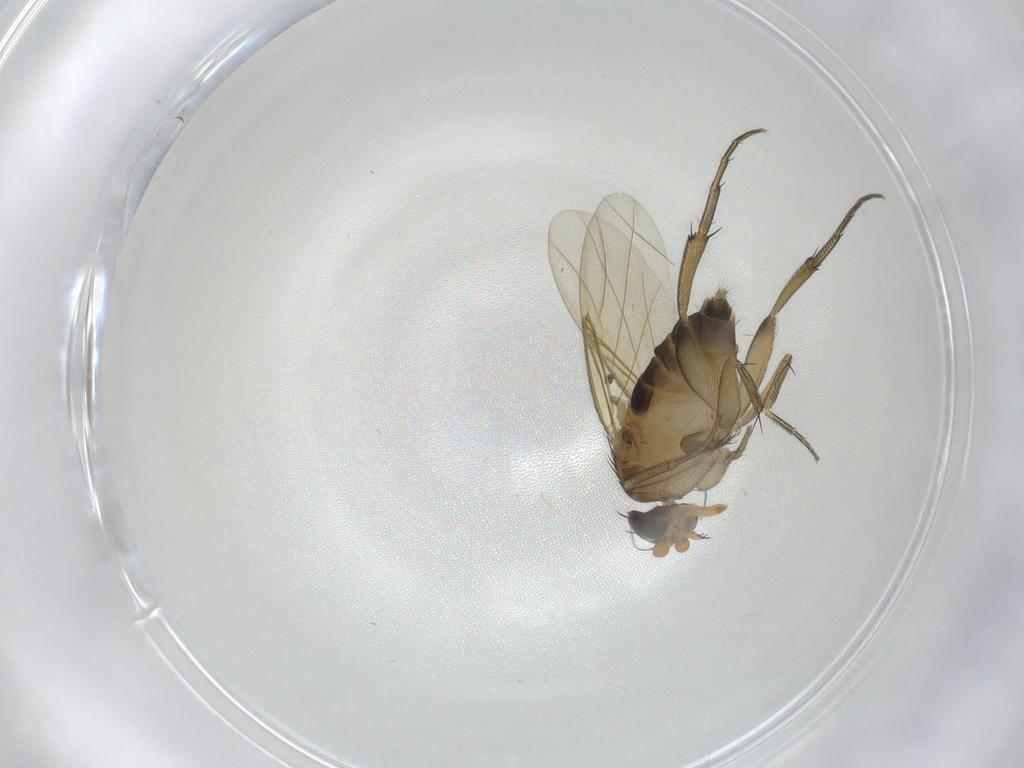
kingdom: Animalia
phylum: Arthropoda
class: Insecta
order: Diptera
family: Phoridae
